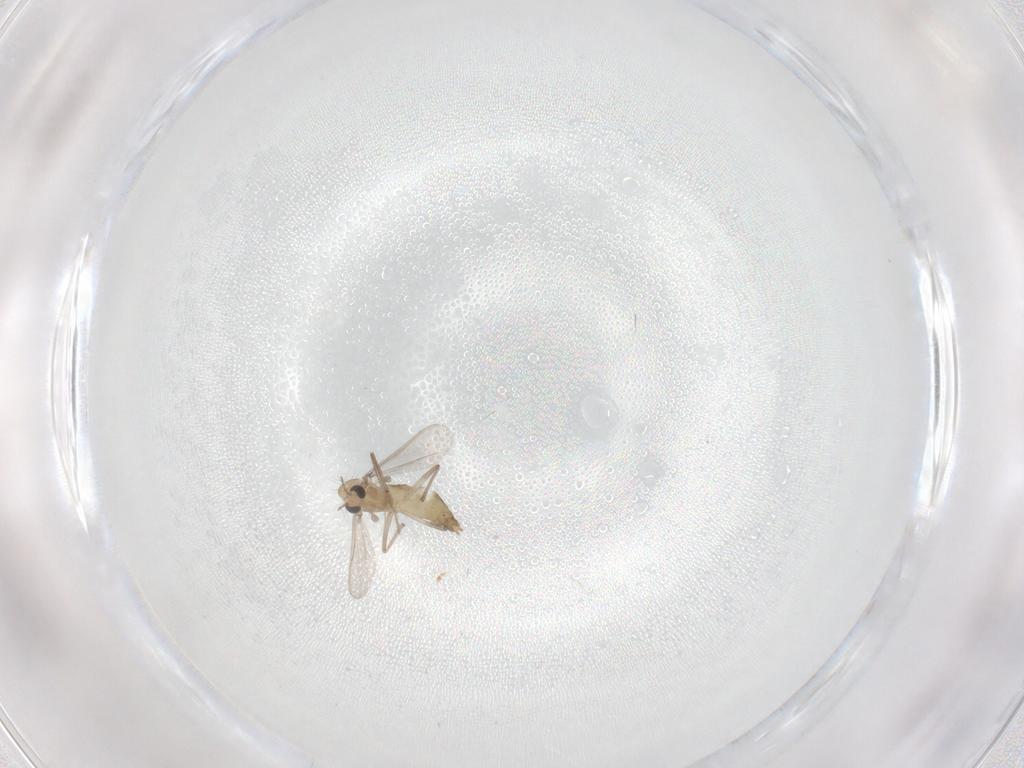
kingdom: Animalia
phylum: Arthropoda
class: Insecta
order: Diptera
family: Chironomidae
